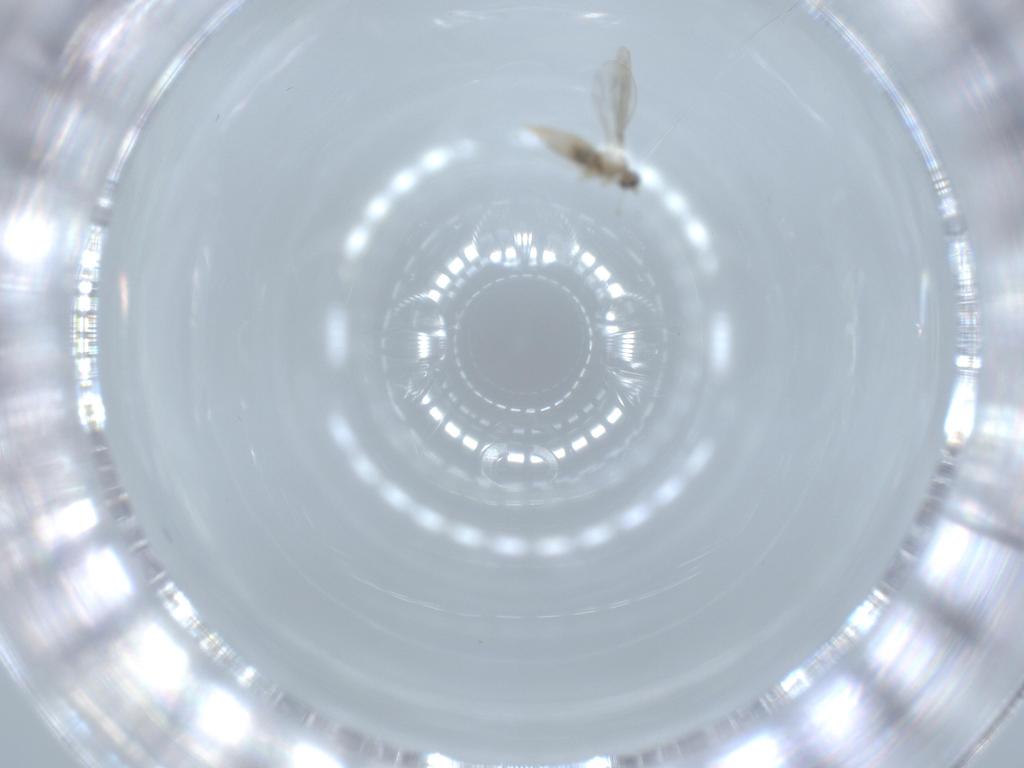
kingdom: Animalia
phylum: Arthropoda
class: Insecta
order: Diptera
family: Cecidomyiidae
